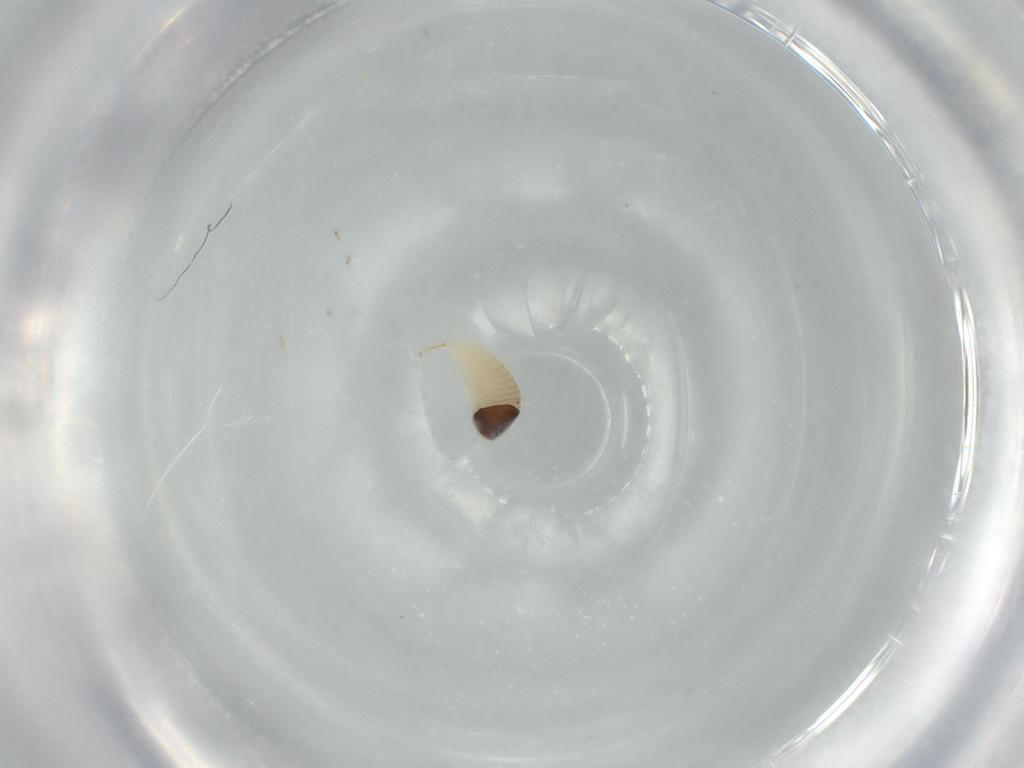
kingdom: Animalia
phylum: Arthropoda
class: Insecta
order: Hymenoptera
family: Ichneumonidae
